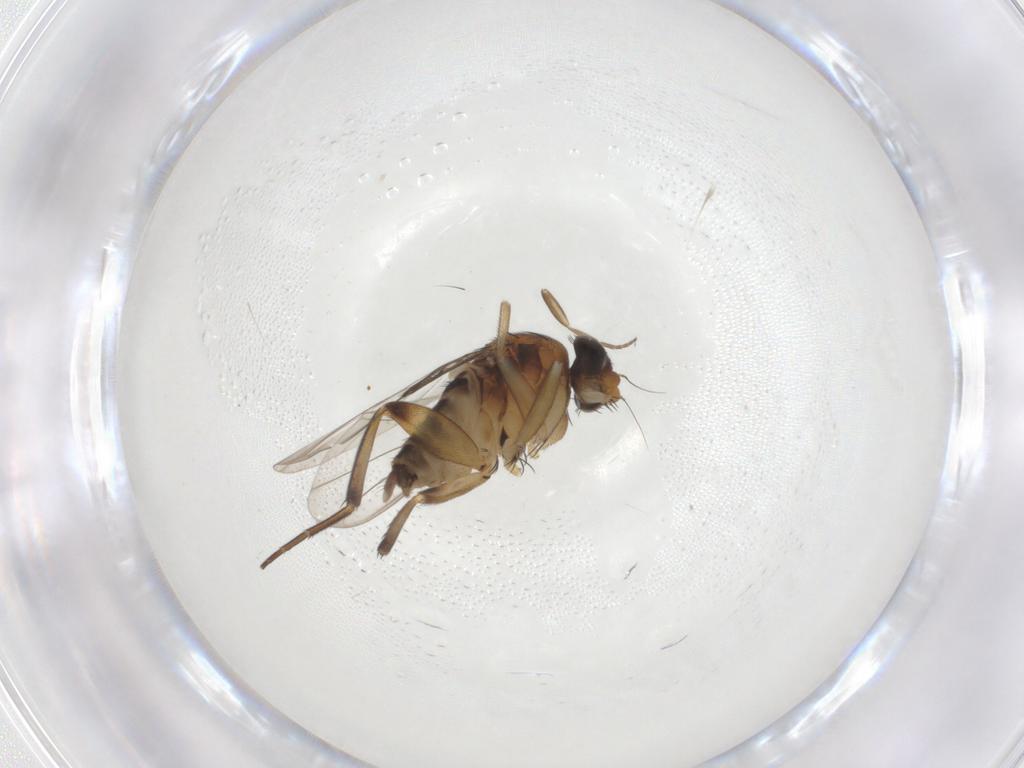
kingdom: Animalia
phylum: Arthropoda
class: Insecta
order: Diptera
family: Phoridae
